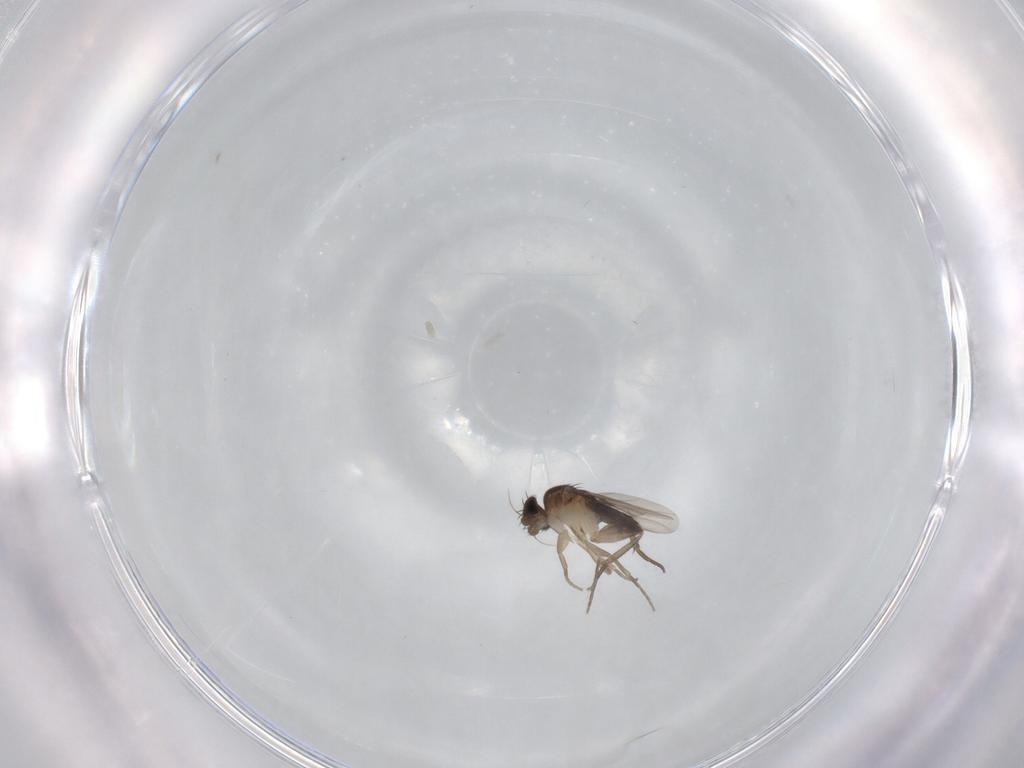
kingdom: Animalia
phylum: Arthropoda
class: Insecta
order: Diptera
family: Phoridae
